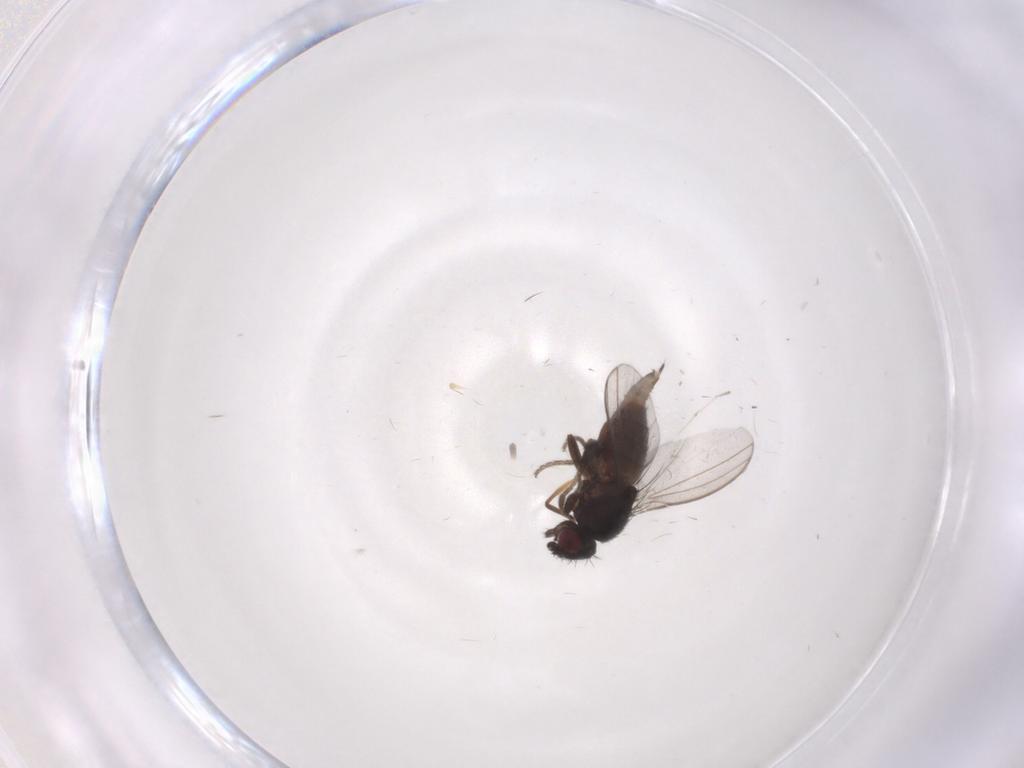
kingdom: Animalia
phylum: Arthropoda
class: Insecta
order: Diptera
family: Milichiidae
